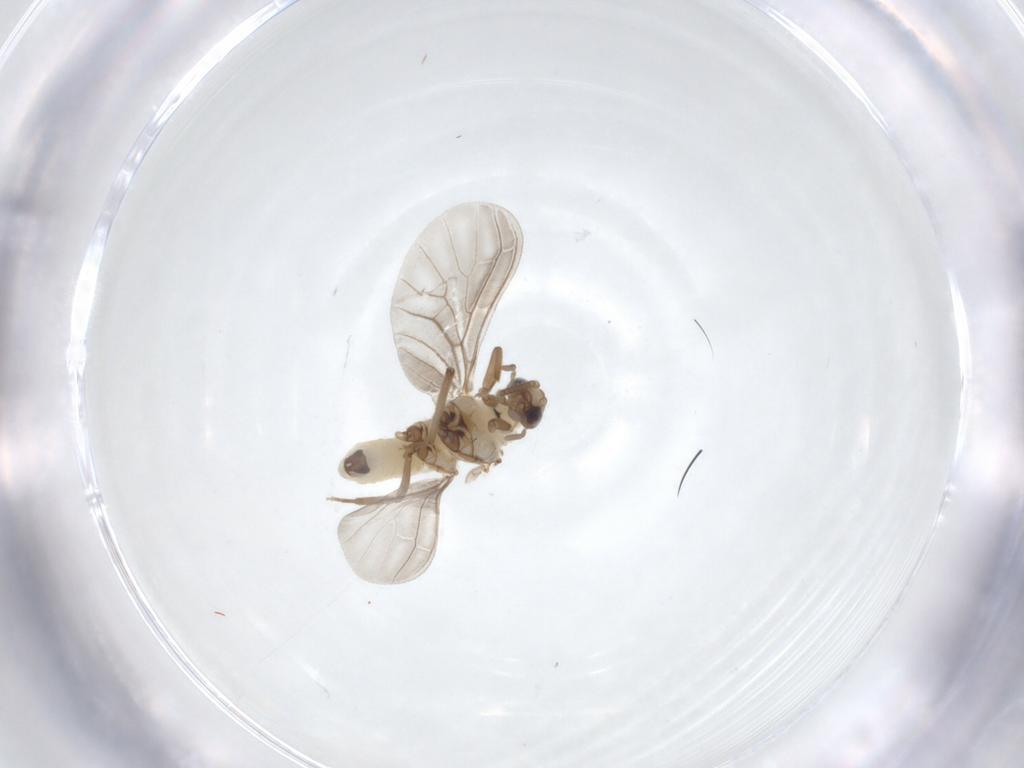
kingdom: Animalia
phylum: Arthropoda
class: Insecta
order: Neuroptera
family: Coniopterygidae
